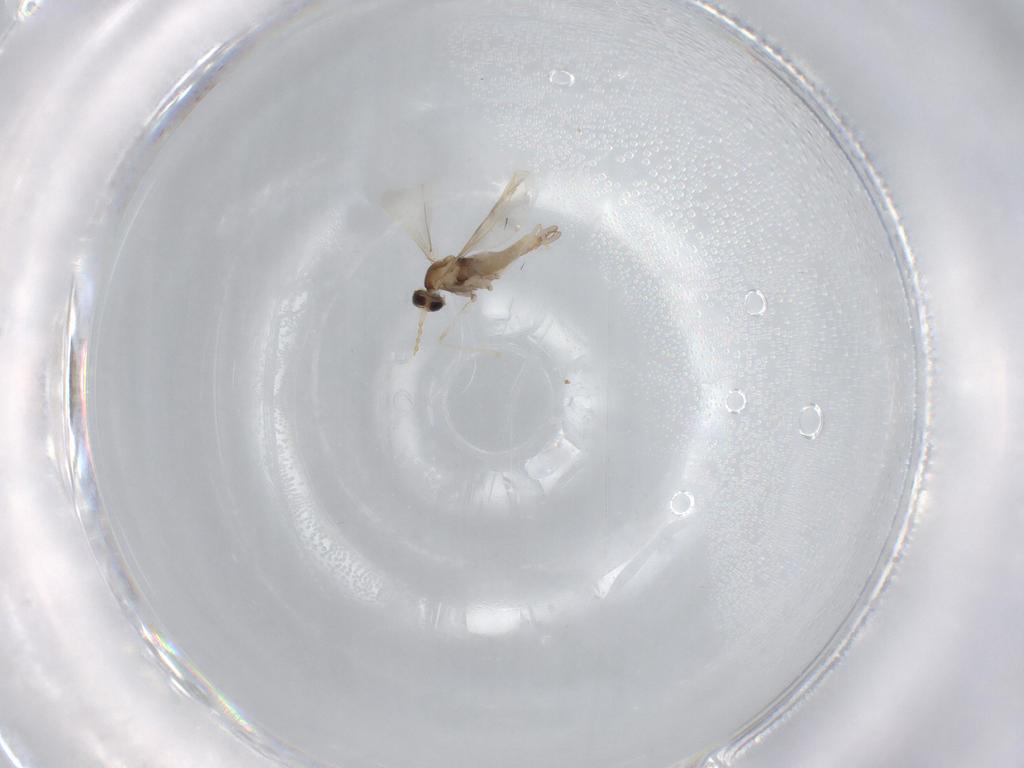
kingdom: Animalia
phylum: Arthropoda
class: Insecta
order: Diptera
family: Cecidomyiidae
